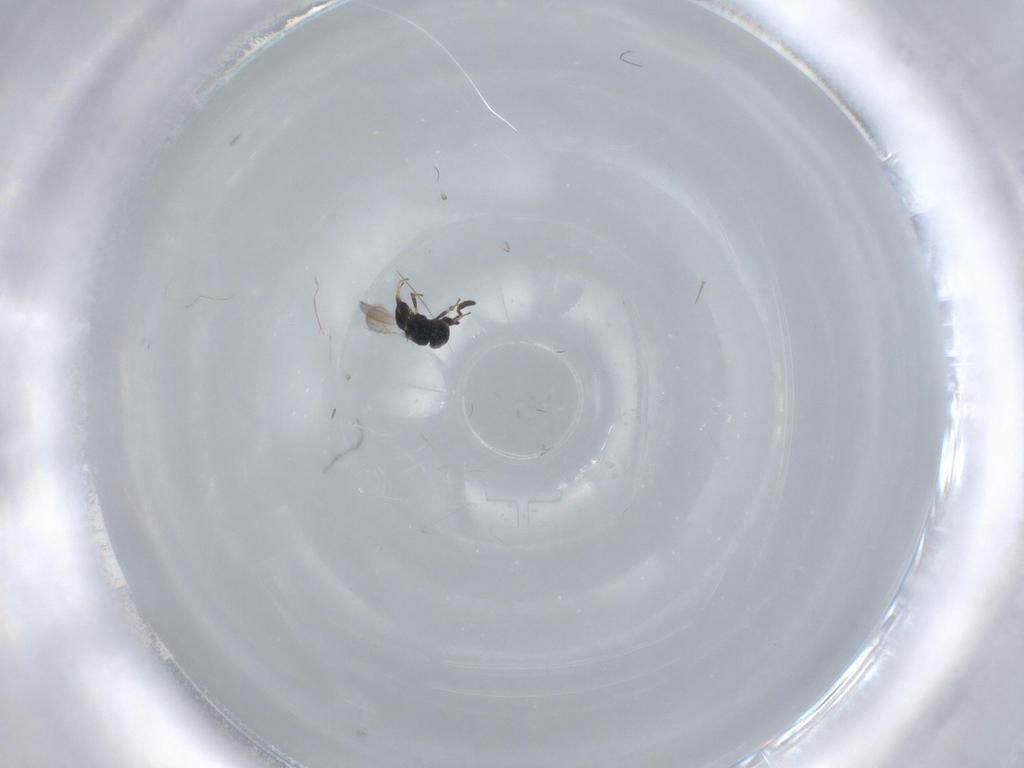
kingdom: Animalia
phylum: Arthropoda
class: Insecta
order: Hymenoptera
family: Scelionidae
